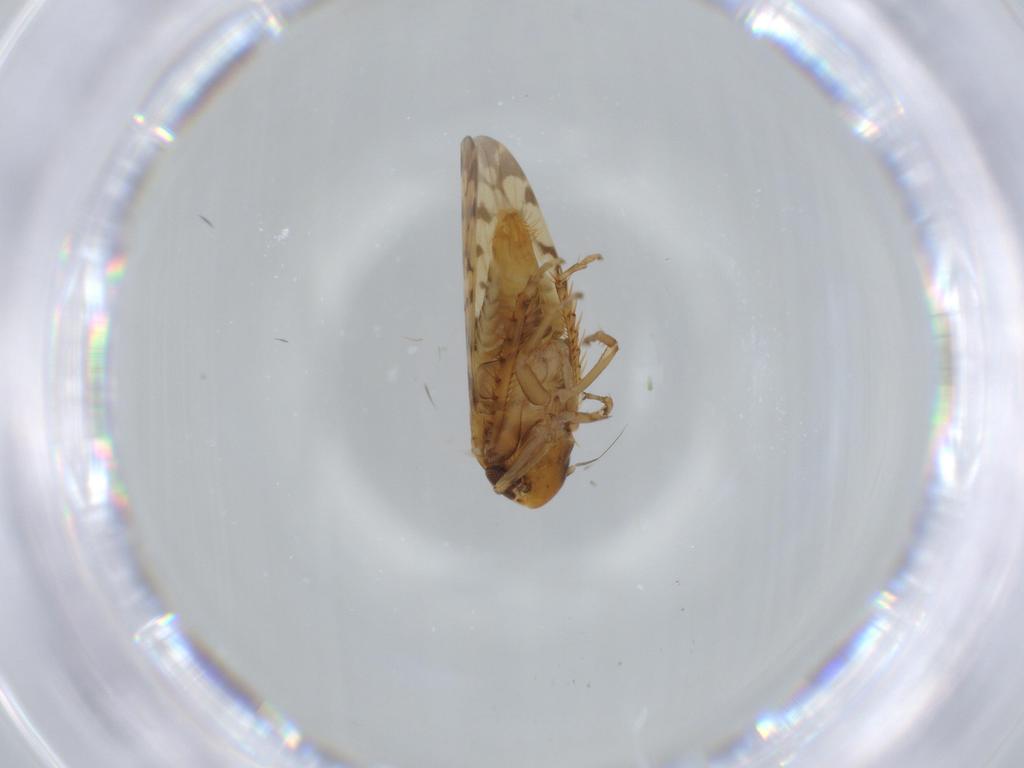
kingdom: Animalia
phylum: Arthropoda
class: Insecta
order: Hemiptera
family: Cicadellidae
